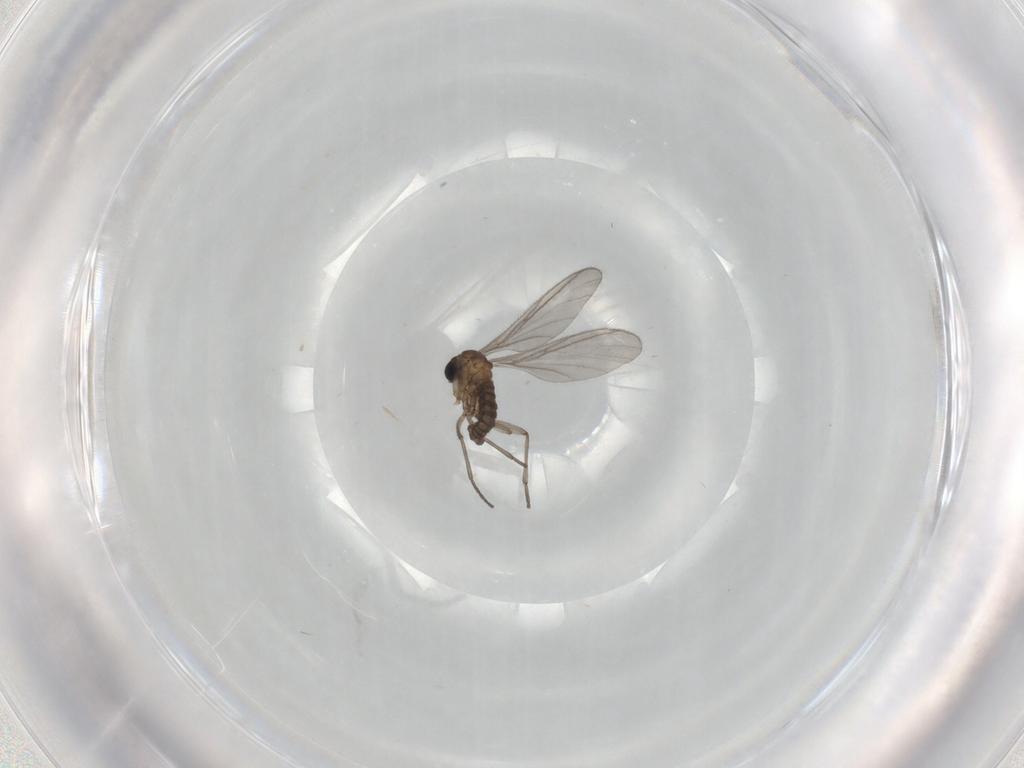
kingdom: Animalia
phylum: Arthropoda
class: Insecta
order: Diptera
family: Sciaridae
